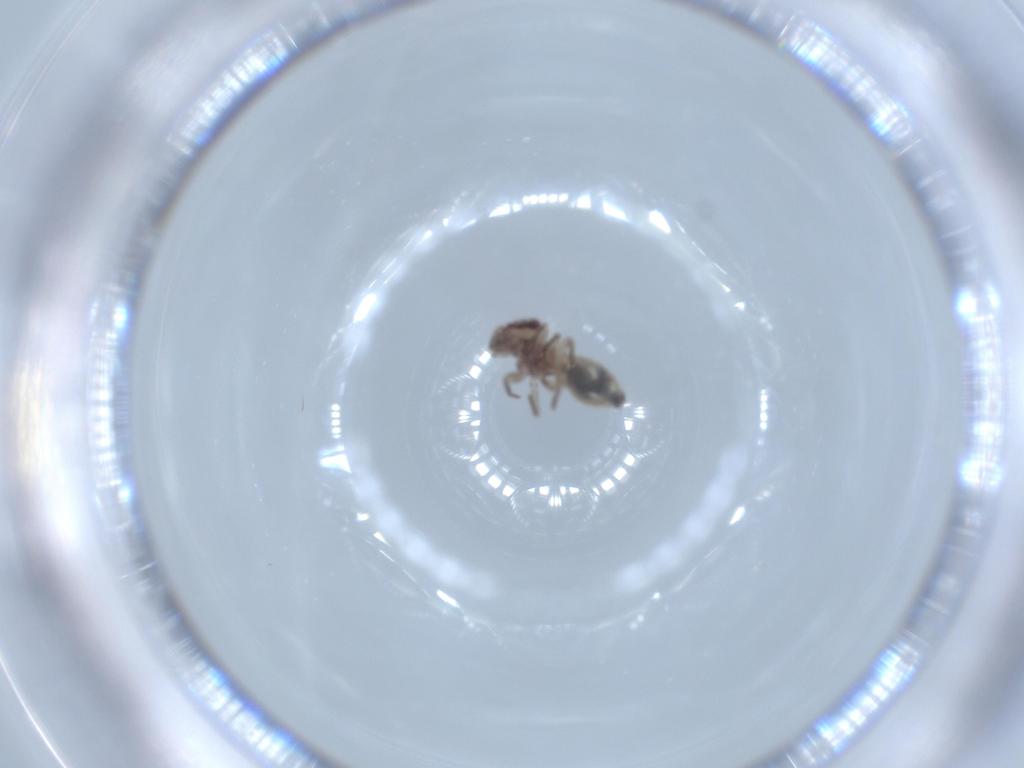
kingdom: Animalia
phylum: Arthropoda
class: Insecta
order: Psocodea
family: Lepidopsocidae
